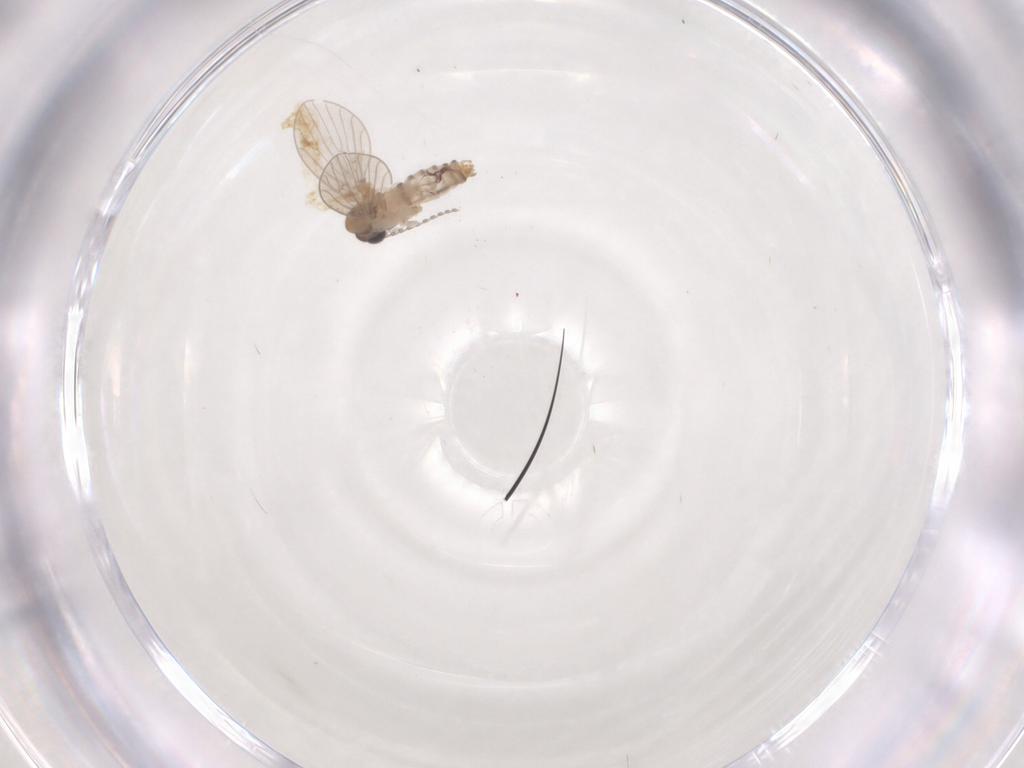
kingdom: Animalia
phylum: Arthropoda
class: Insecta
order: Diptera
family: Psychodidae
